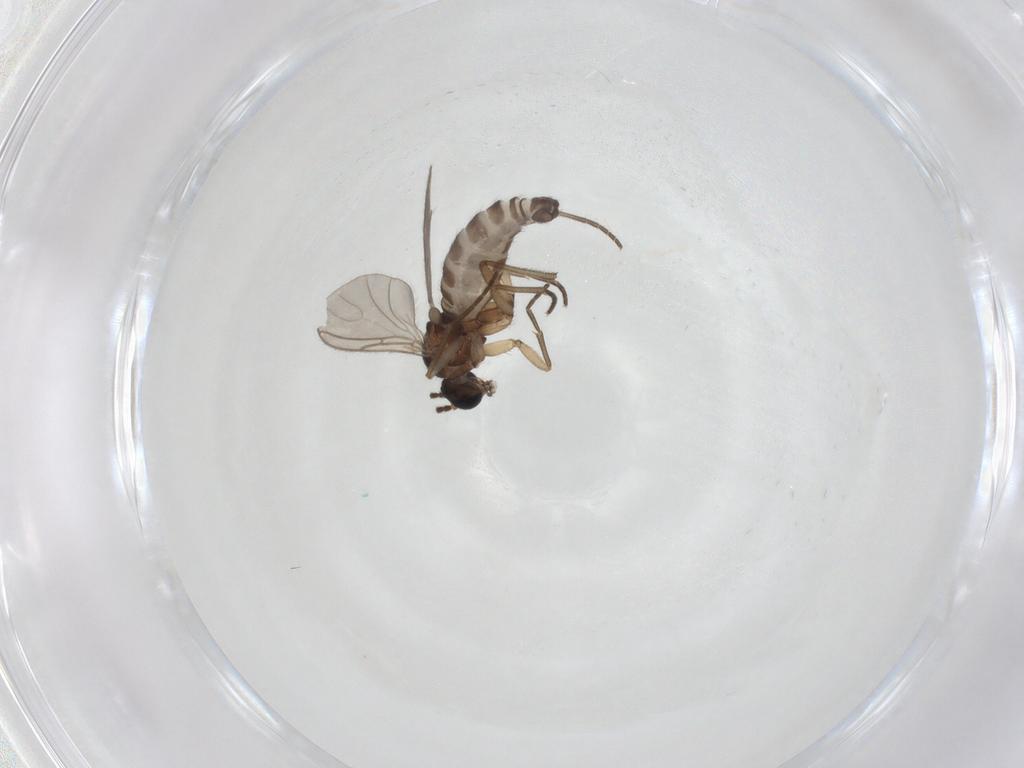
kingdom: Animalia
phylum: Arthropoda
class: Insecta
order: Diptera
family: Sciaridae
